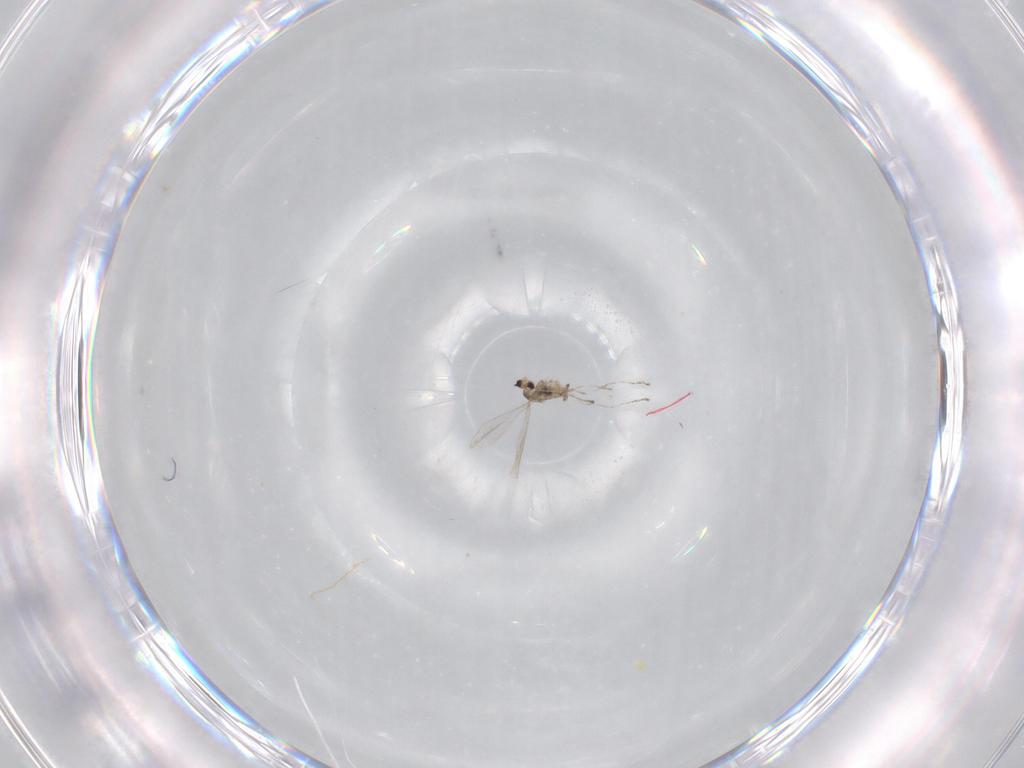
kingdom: Animalia
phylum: Arthropoda
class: Insecta
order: Diptera
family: Cecidomyiidae
